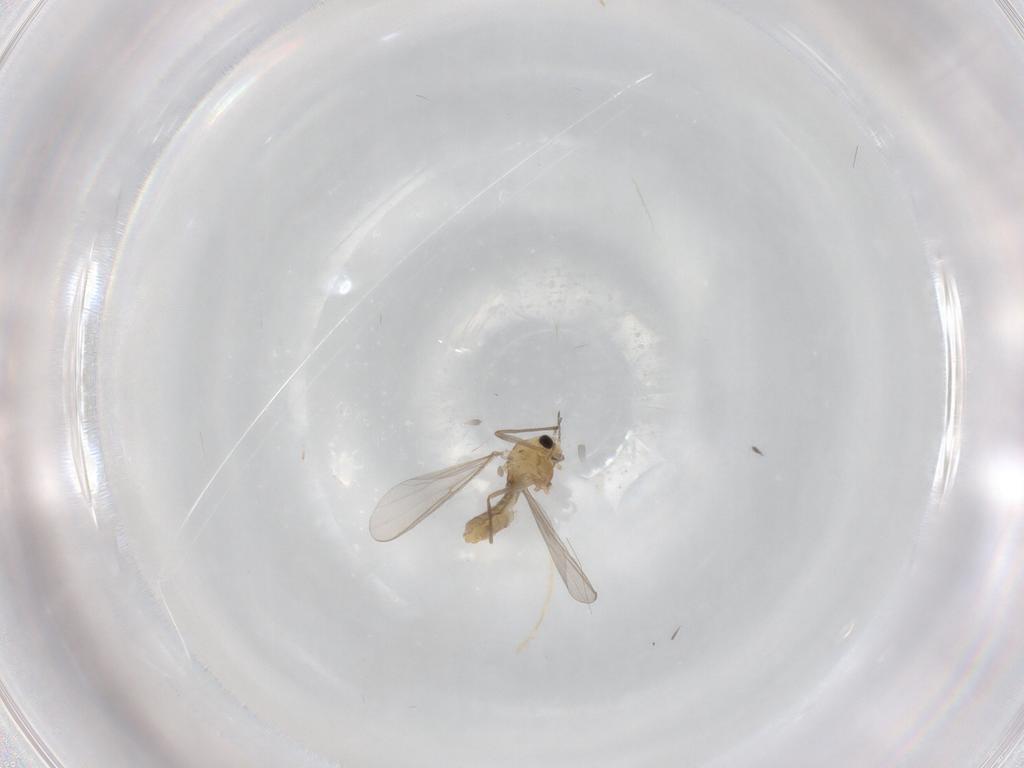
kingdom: Animalia
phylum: Arthropoda
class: Insecta
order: Diptera
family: Chironomidae
